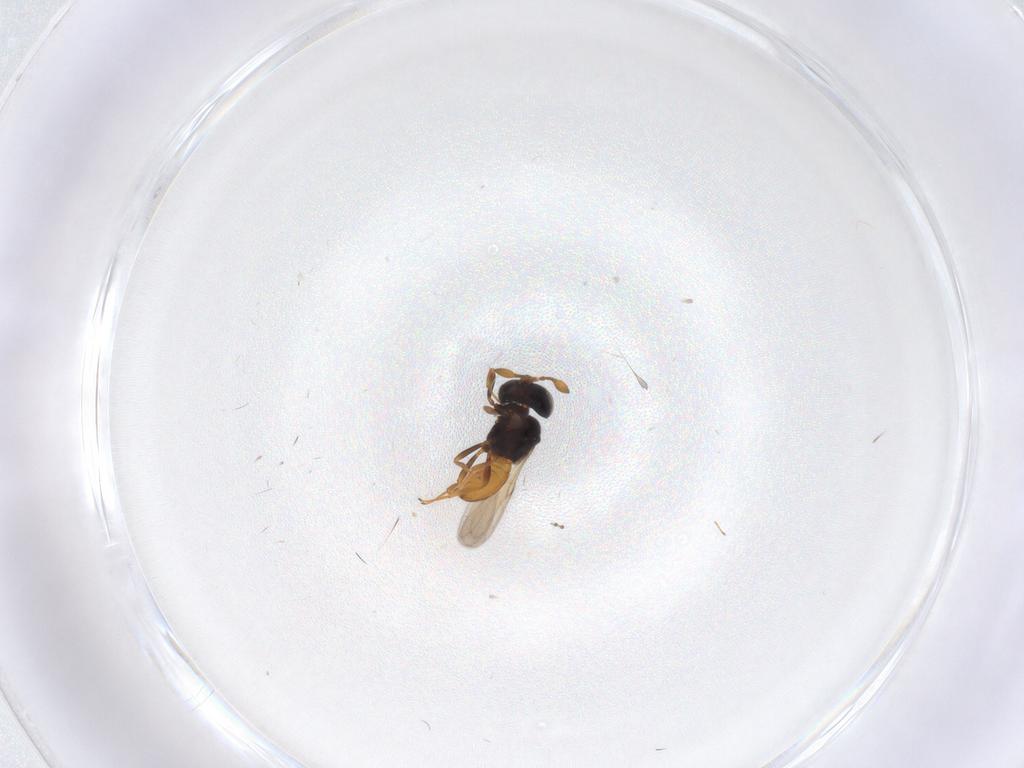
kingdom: Animalia
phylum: Arthropoda
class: Insecta
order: Hymenoptera
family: Scelionidae
